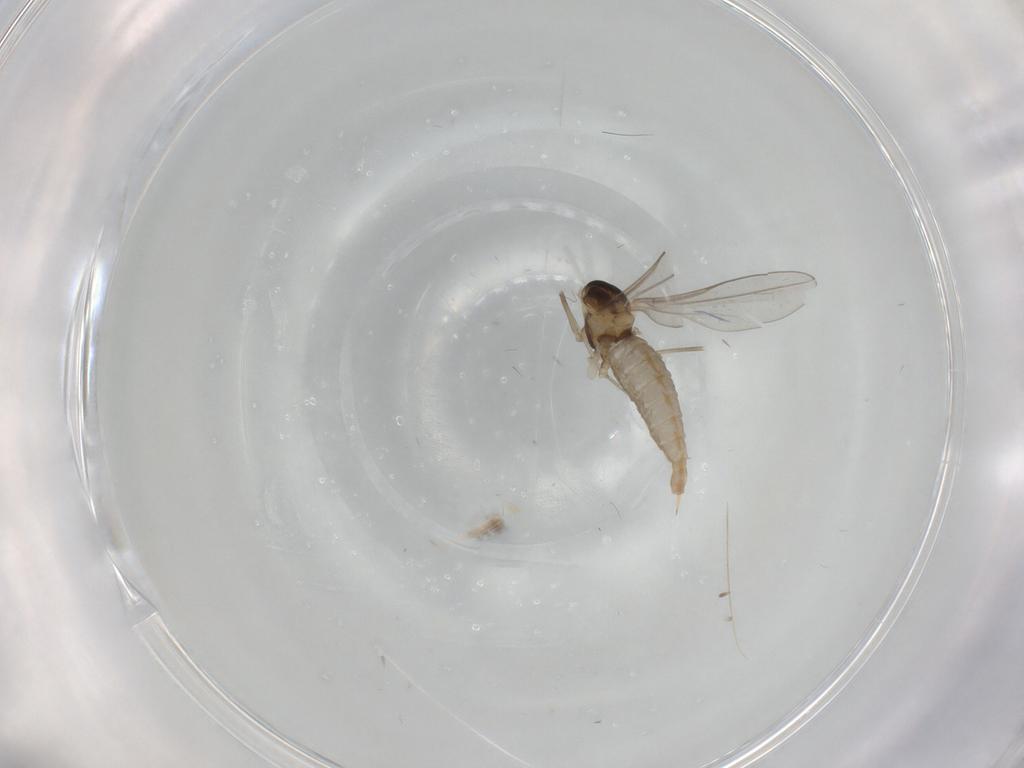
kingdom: Animalia
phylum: Arthropoda
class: Insecta
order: Diptera
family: Cecidomyiidae
